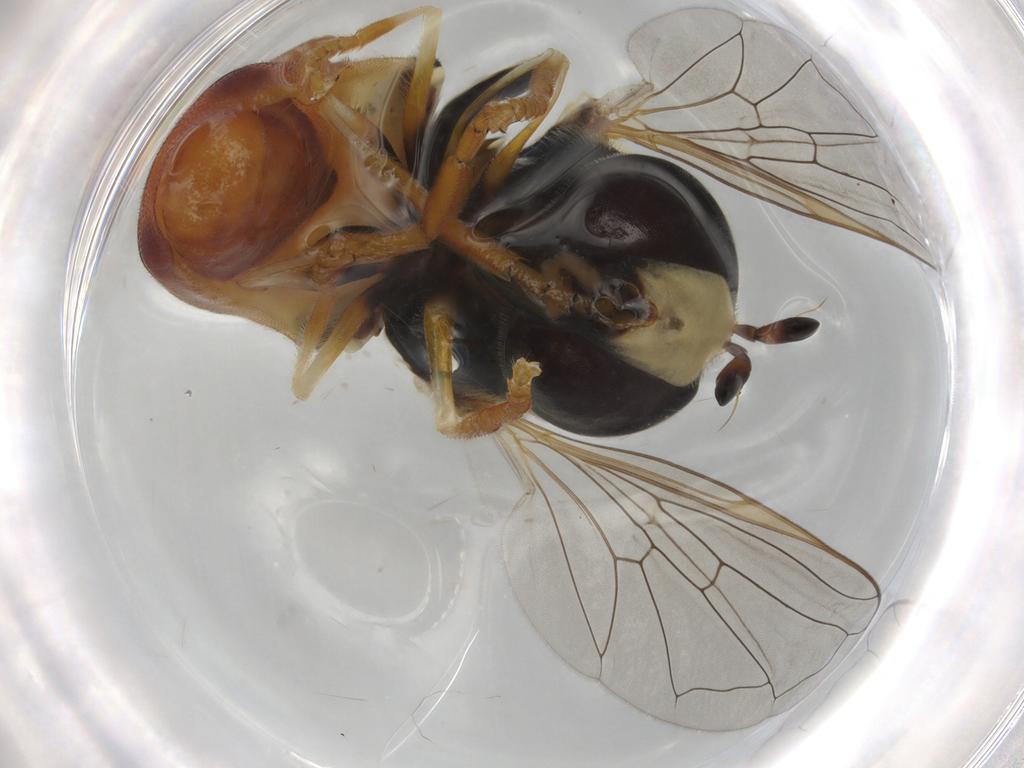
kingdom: Animalia
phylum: Arthropoda
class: Insecta
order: Diptera
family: Syrphidae
